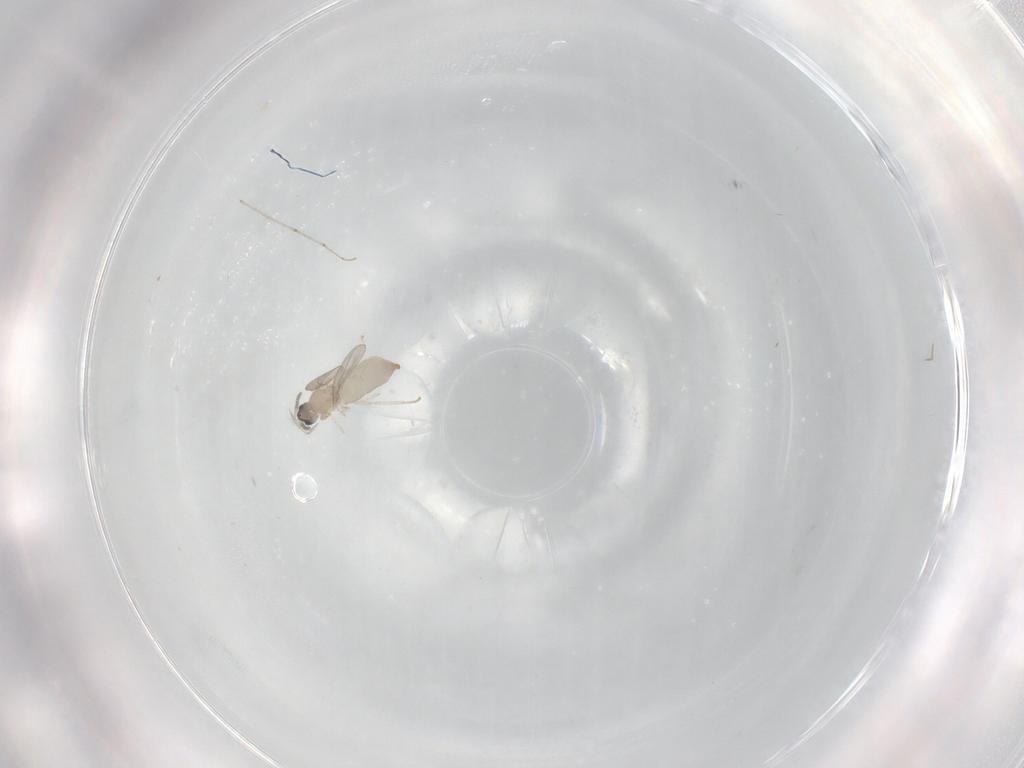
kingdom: Animalia
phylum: Arthropoda
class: Insecta
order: Diptera
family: Cecidomyiidae
